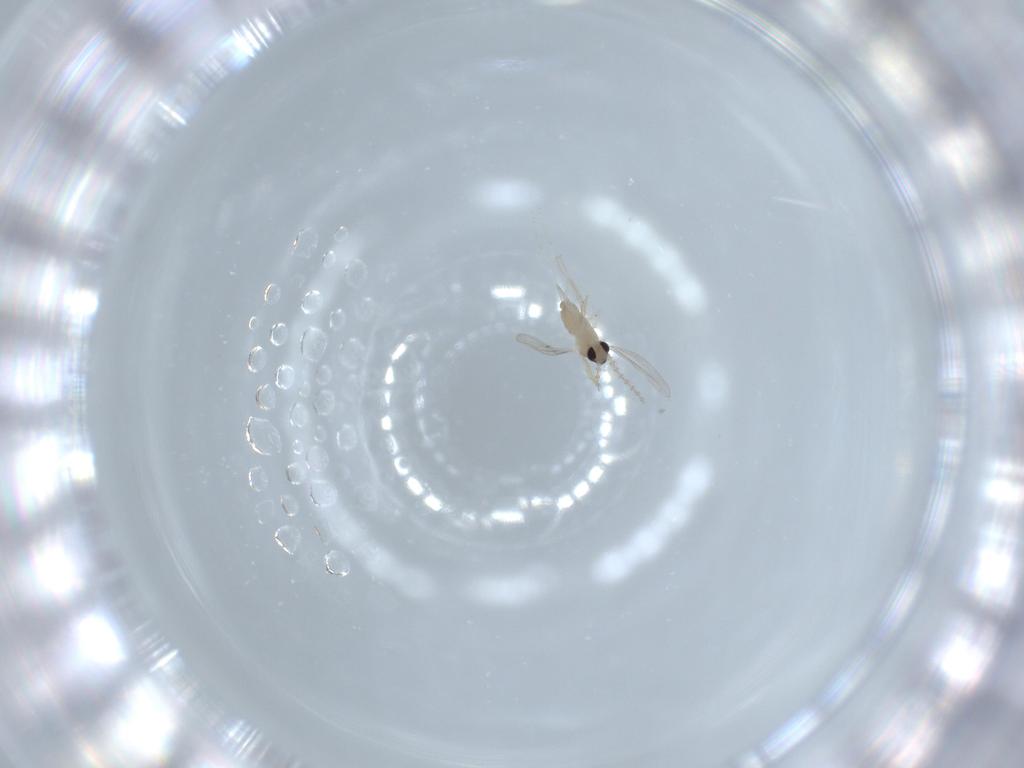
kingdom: Animalia
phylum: Arthropoda
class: Insecta
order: Diptera
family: Cecidomyiidae
